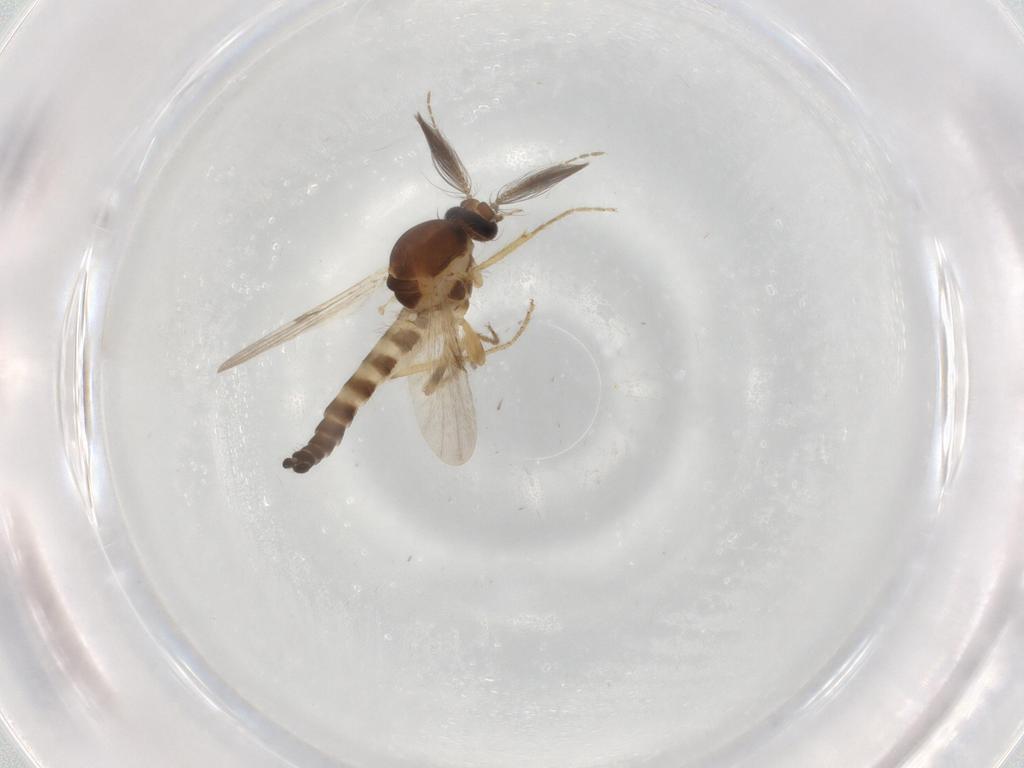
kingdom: Animalia
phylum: Arthropoda
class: Insecta
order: Diptera
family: Ceratopogonidae
